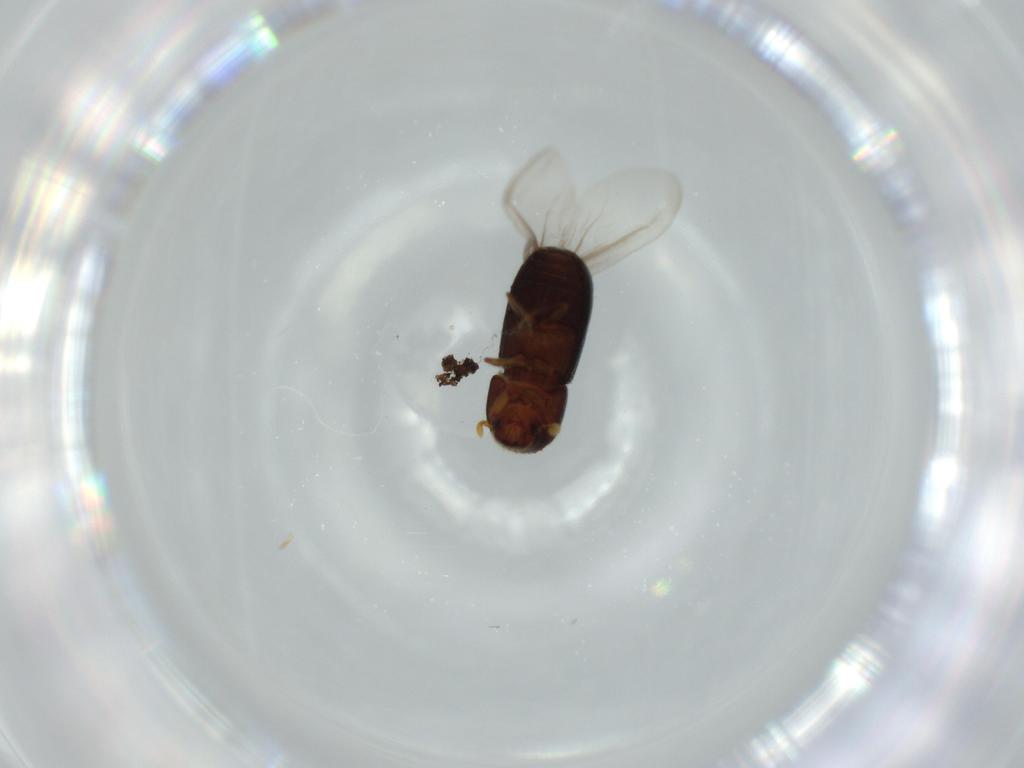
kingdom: Animalia
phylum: Arthropoda
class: Insecta
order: Coleoptera
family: Curculionidae
